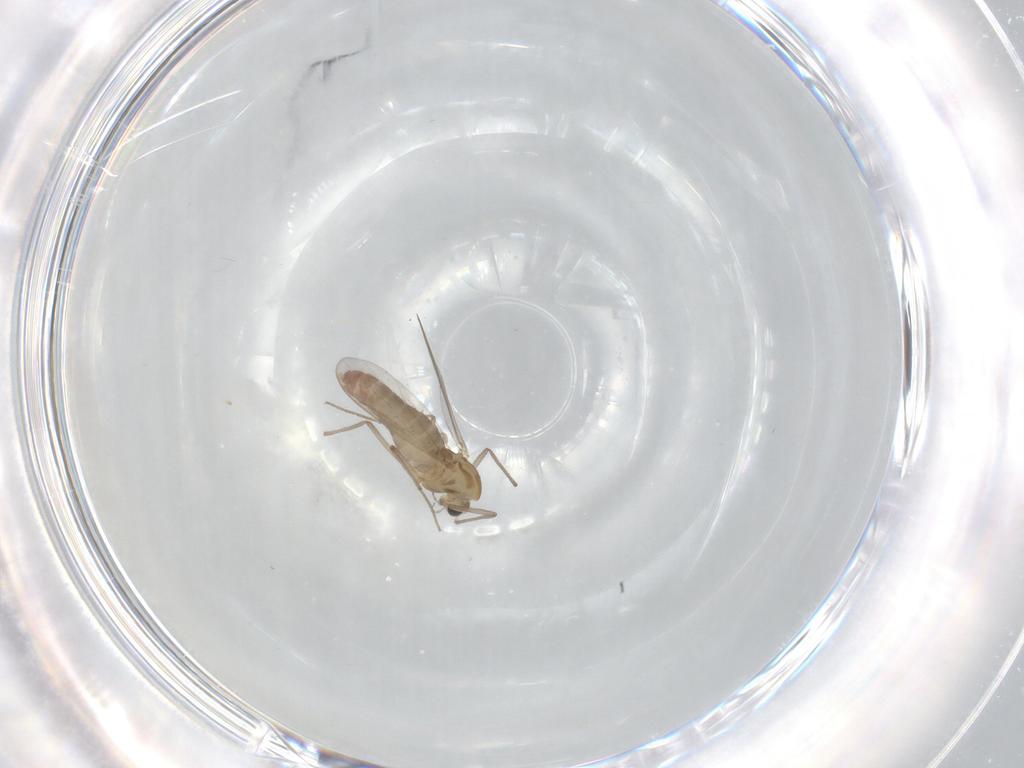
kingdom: Animalia
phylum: Arthropoda
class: Insecta
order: Diptera
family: Chironomidae
